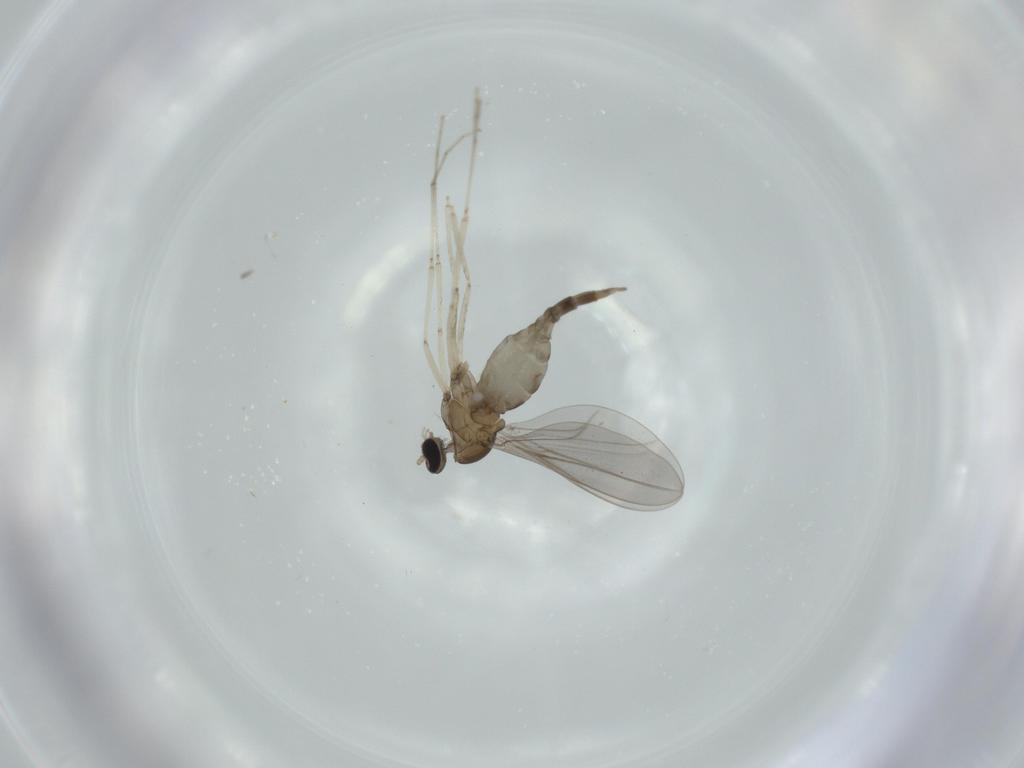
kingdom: Animalia
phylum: Arthropoda
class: Insecta
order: Diptera
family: Cecidomyiidae
